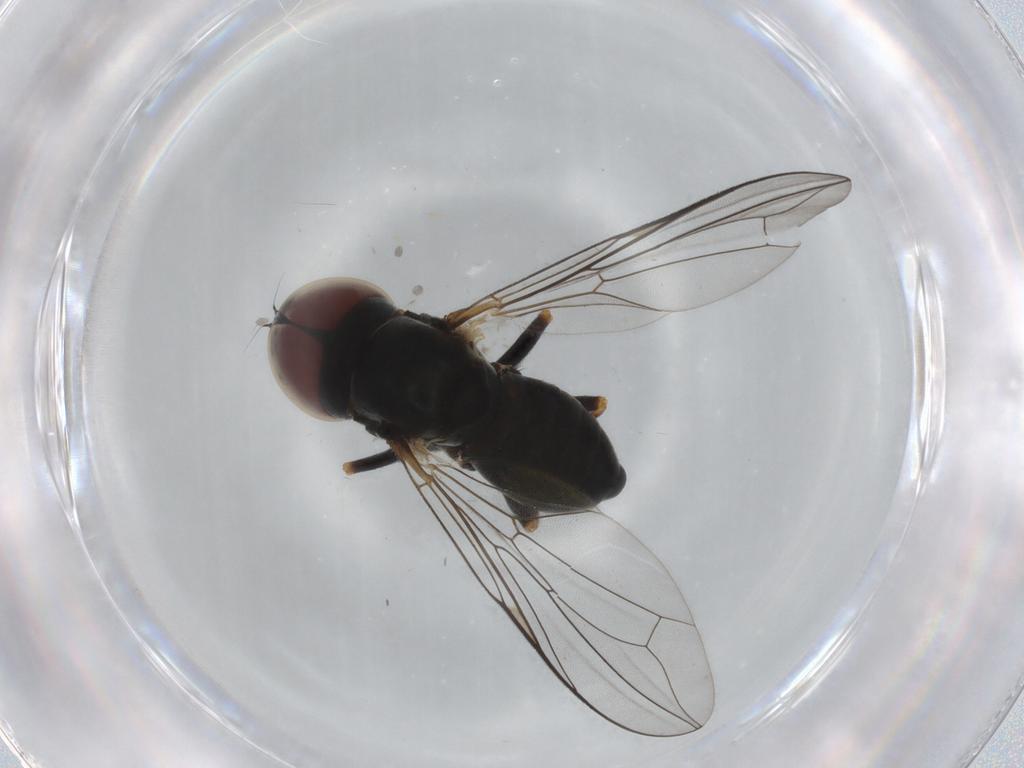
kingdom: Animalia
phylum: Arthropoda
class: Insecta
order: Diptera
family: Pipunculidae
